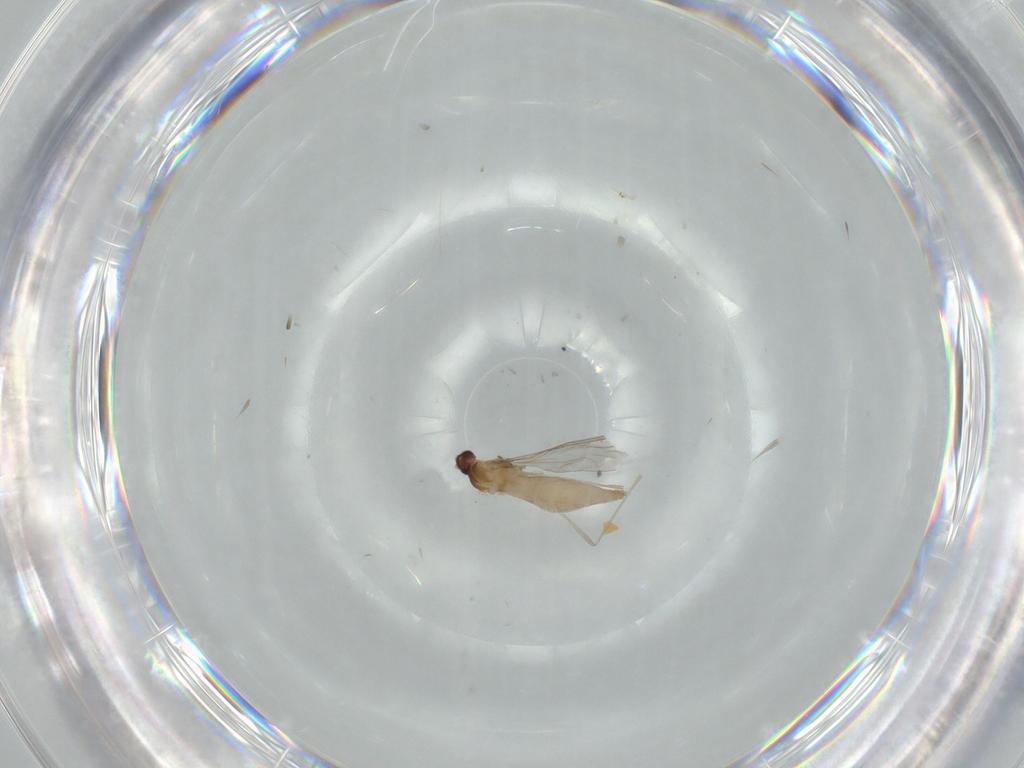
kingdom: Animalia
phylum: Arthropoda
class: Insecta
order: Diptera
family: Cecidomyiidae
